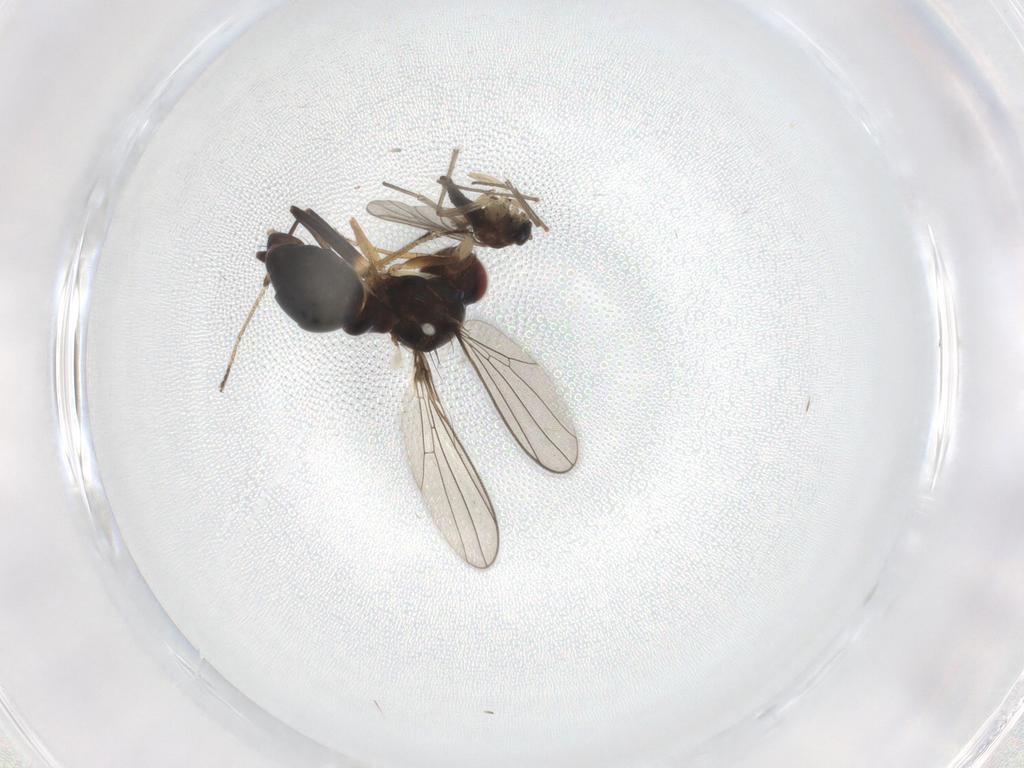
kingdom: Animalia
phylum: Arthropoda
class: Insecta
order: Diptera
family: Sepsidae
